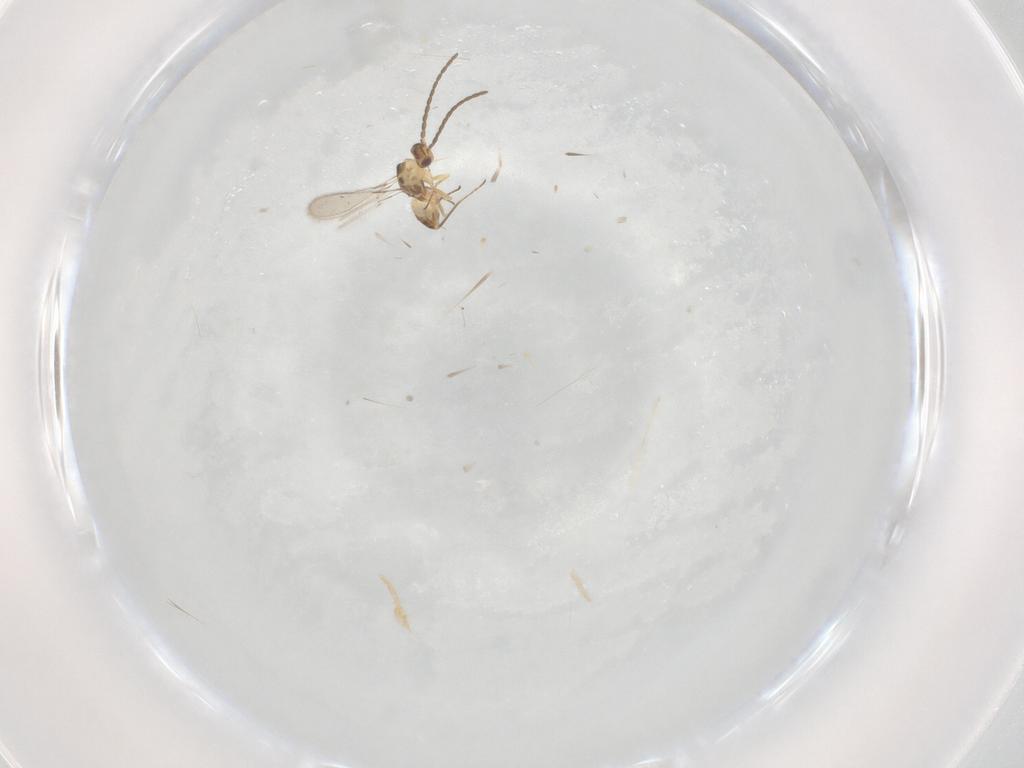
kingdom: Animalia
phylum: Arthropoda
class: Insecta
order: Hymenoptera
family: Mymaridae
